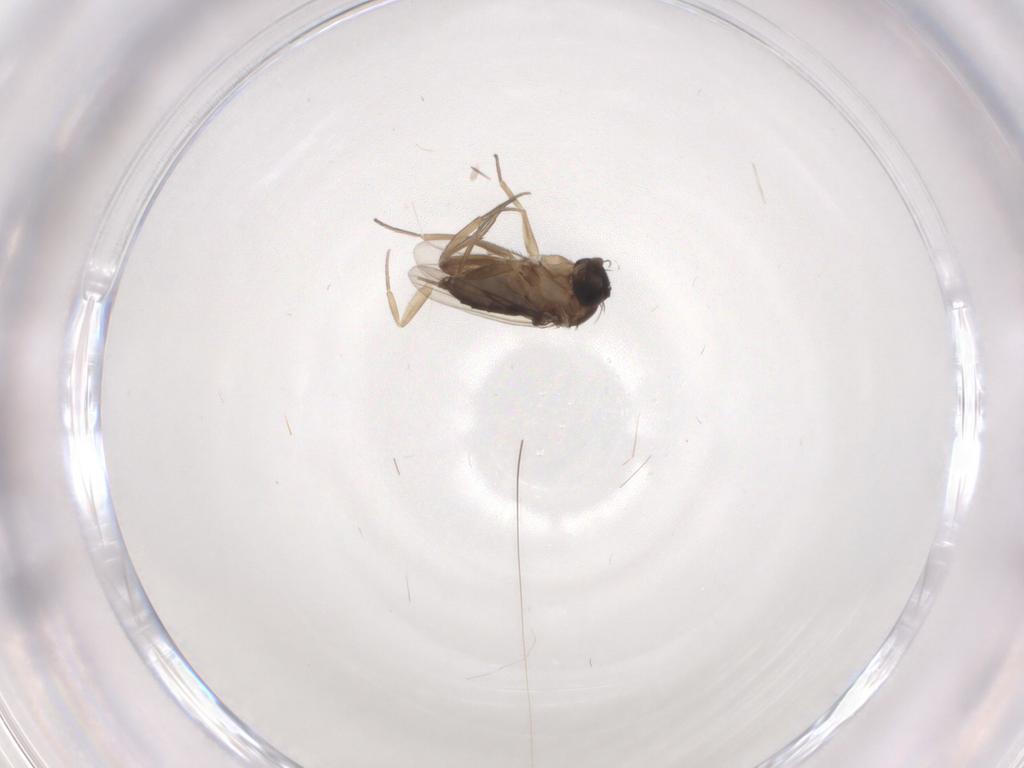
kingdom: Animalia
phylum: Arthropoda
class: Insecta
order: Diptera
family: Phoridae
